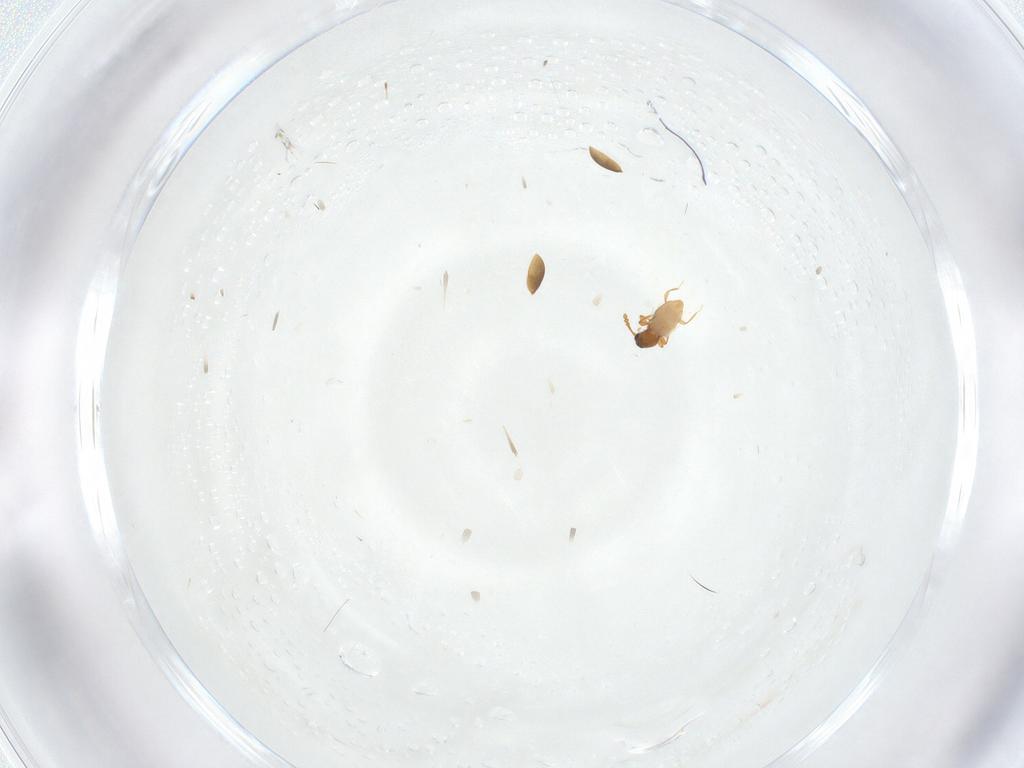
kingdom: Animalia
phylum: Arthropoda
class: Insecta
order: Coleoptera
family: Staphylinidae
